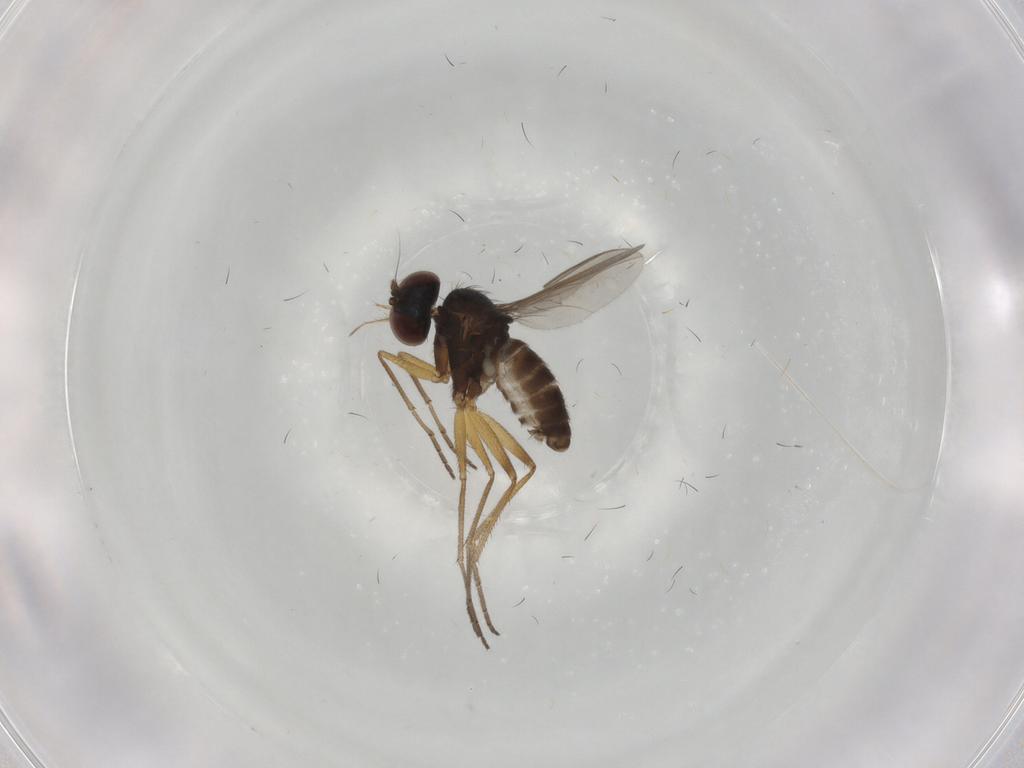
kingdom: Animalia
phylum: Arthropoda
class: Insecta
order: Diptera
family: Dolichopodidae
